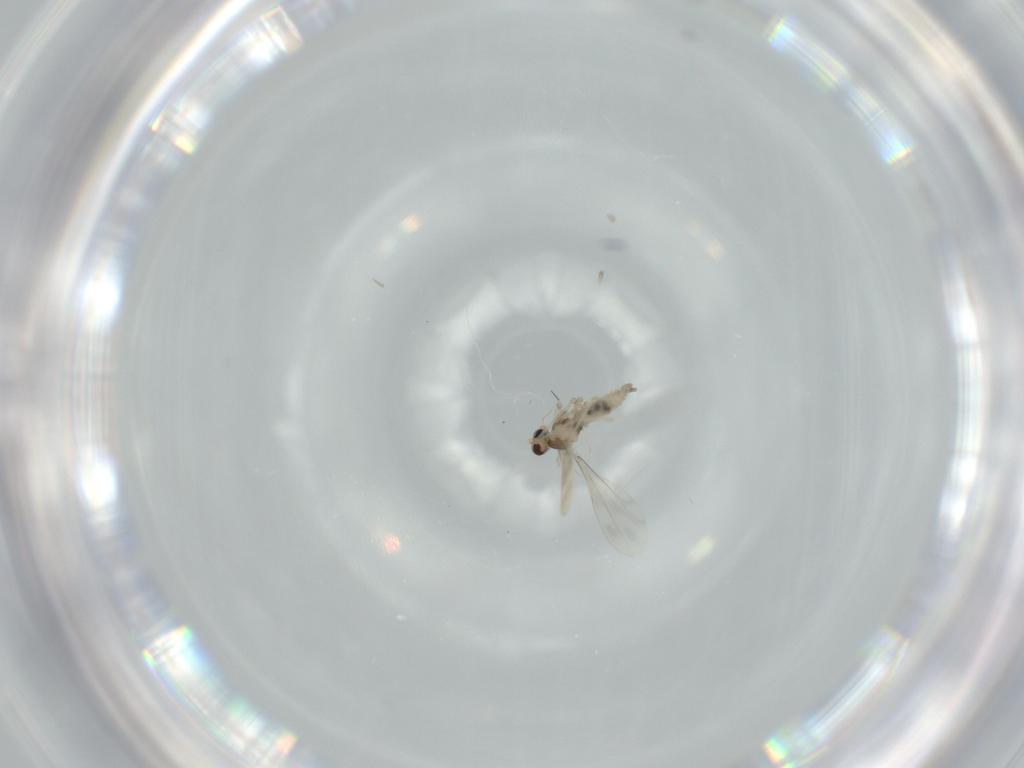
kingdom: Animalia
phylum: Arthropoda
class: Insecta
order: Diptera
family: Cecidomyiidae
